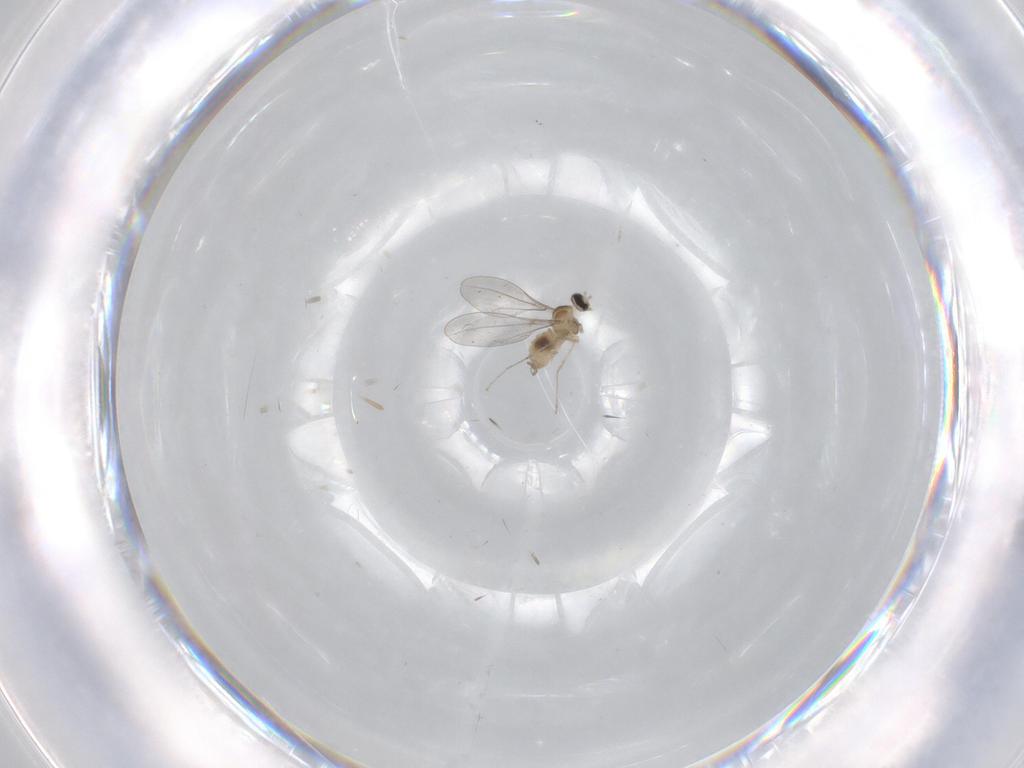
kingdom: Animalia
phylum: Arthropoda
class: Insecta
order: Diptera
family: Cecidomyiidae
